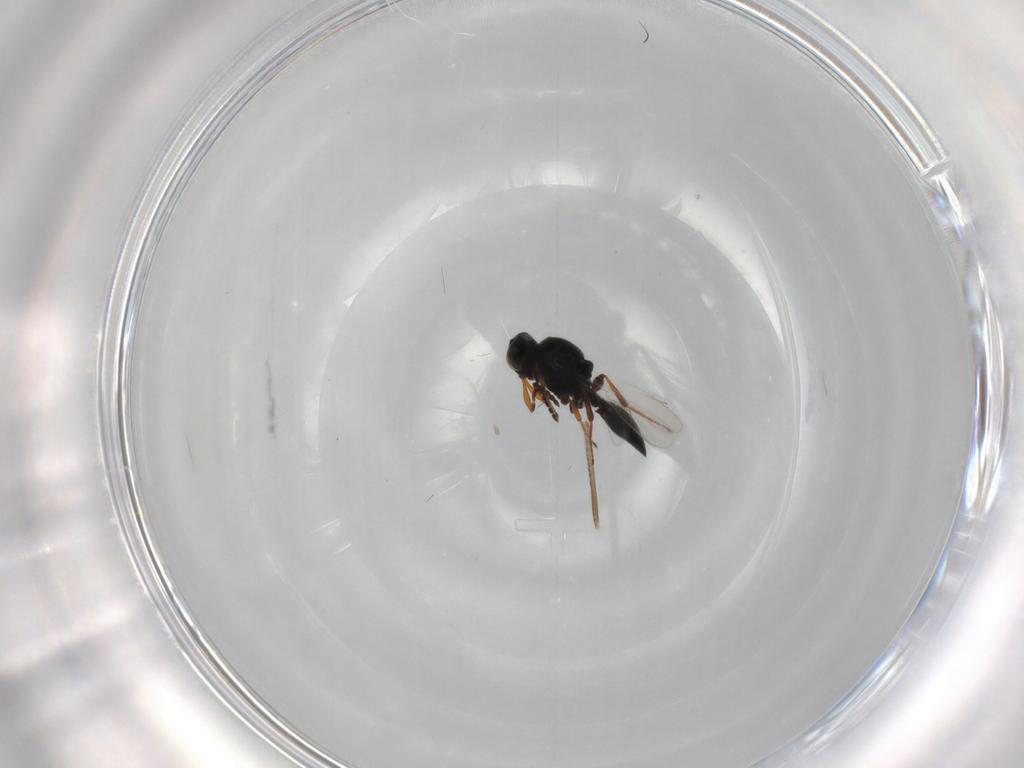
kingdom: Animalia
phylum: Arthropoda
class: Insecta
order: Hymenoptera
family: Platygastridae
